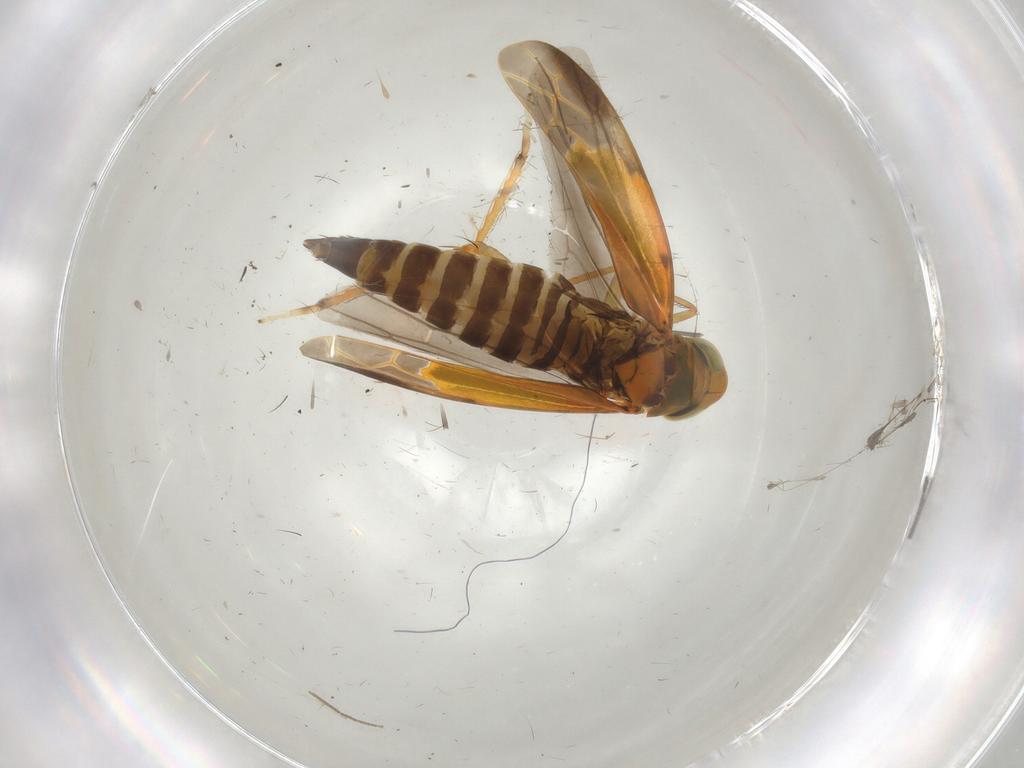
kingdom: Animalia
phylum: Arthropoda
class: Insecta
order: Hemiptera
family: Cicadellidae
